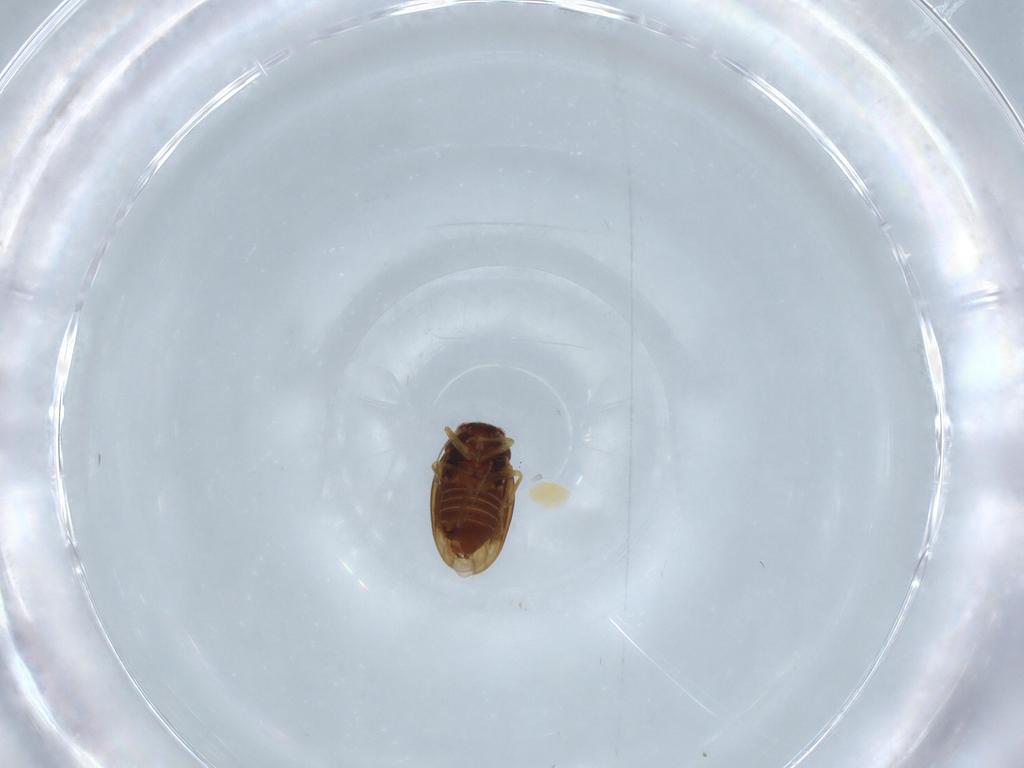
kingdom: Animalia
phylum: Arthropoda
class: Insecta
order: Hemiptera
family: Schizopteridae
